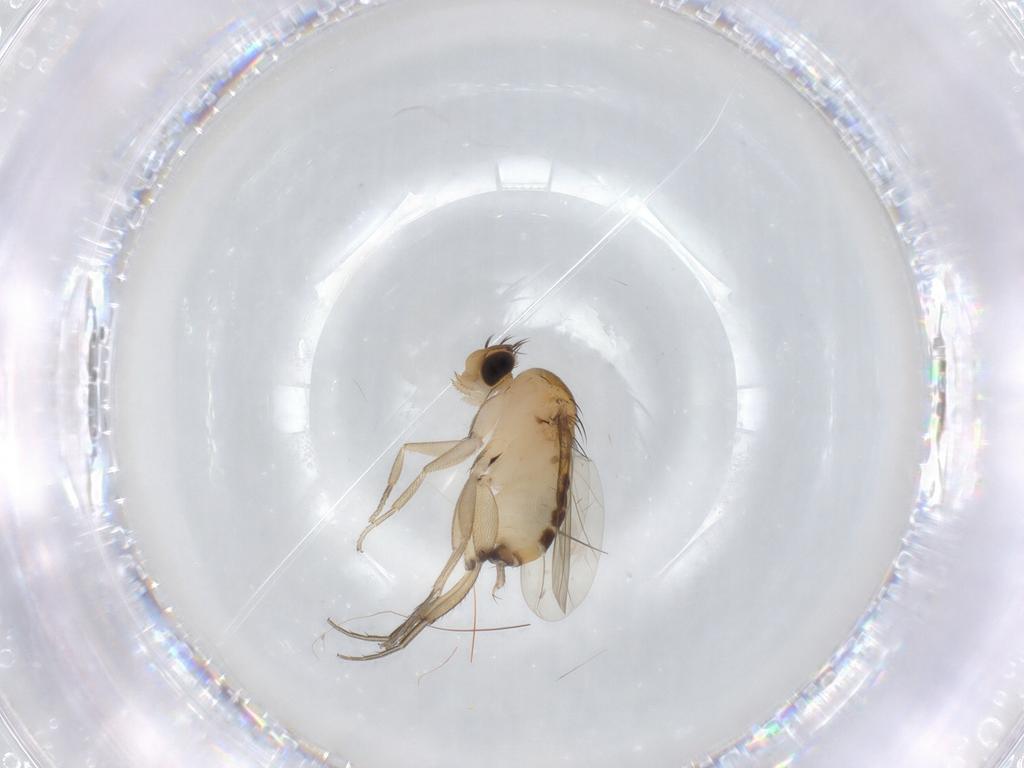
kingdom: Animalia
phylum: Arthropoda
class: Insecta
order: Diptera
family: Phoridae
